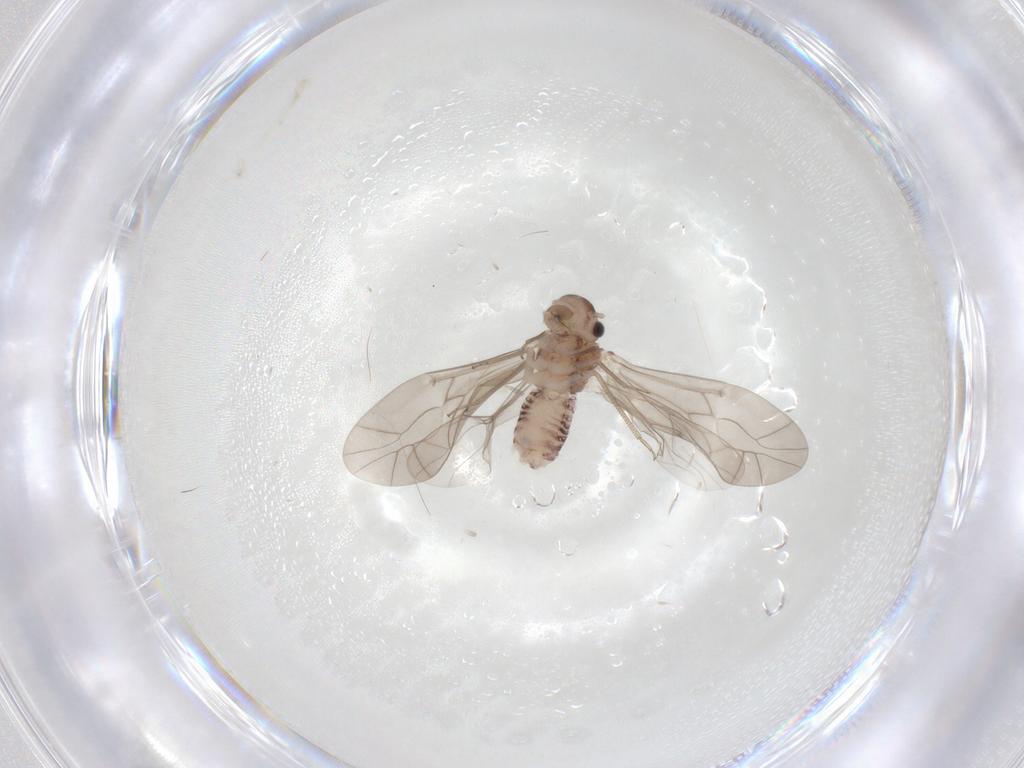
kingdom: Animalia
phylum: Arthropoda
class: Insecta
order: Psocodea
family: Peripsocidae
